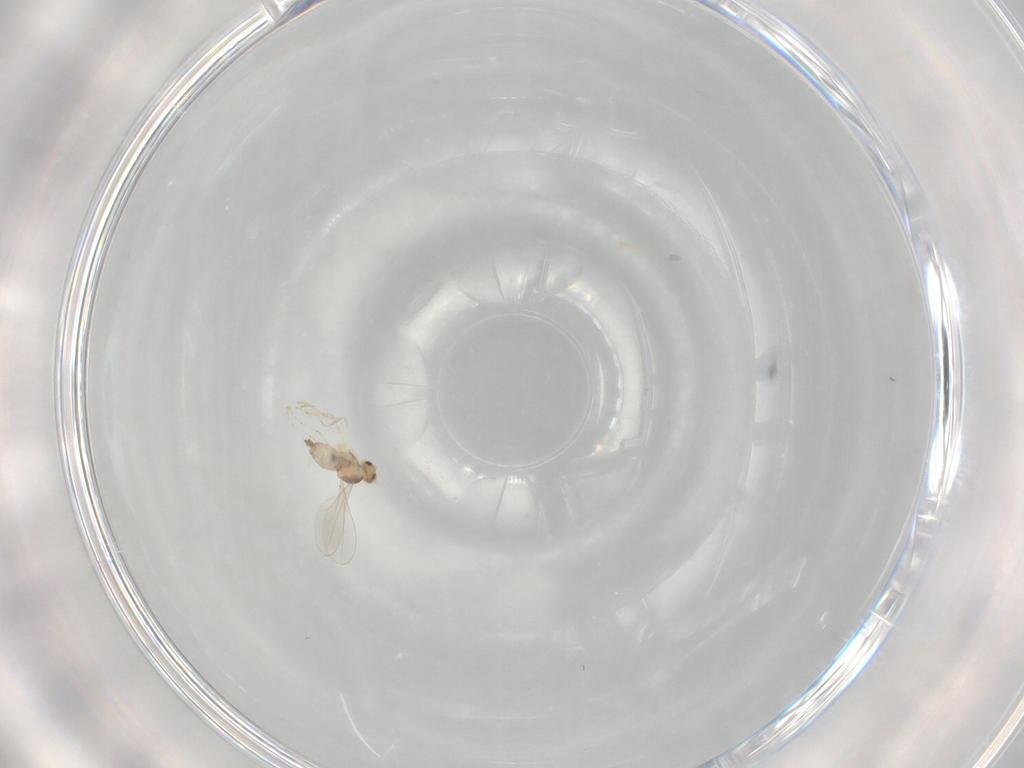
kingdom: Animalia
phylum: Arthropoda
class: Insecta
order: Diptera
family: Cecidomyiidae
